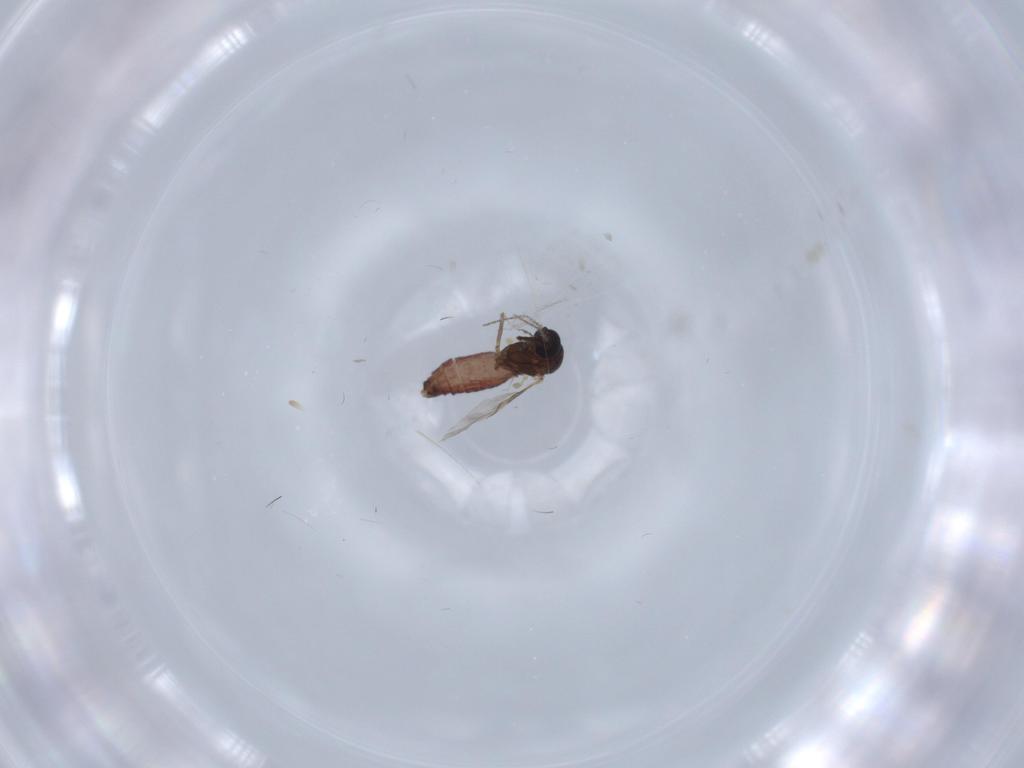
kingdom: Animalia
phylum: Arthropoda
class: Insecta
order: Diptera
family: Ceratopogonidae
